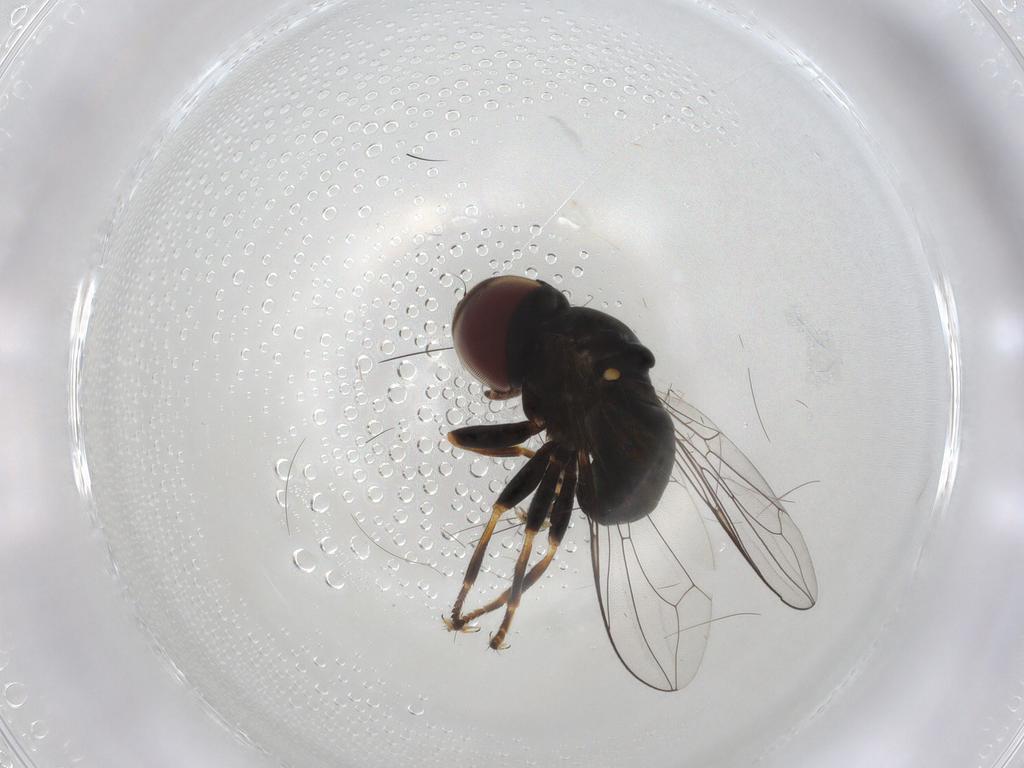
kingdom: Animalia
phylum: Arthropoda
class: Insecta
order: Diptera
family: Pipunculidae
